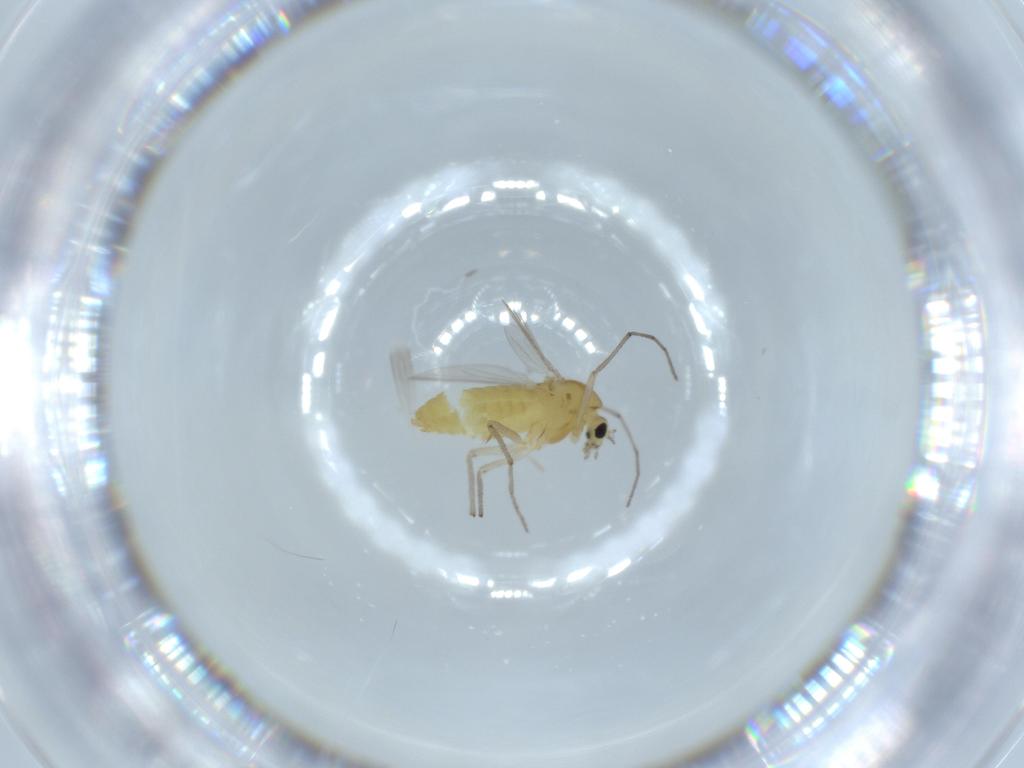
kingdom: Animalia
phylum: Arthropoda
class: Insecta
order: Diptera
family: Chironomidae
